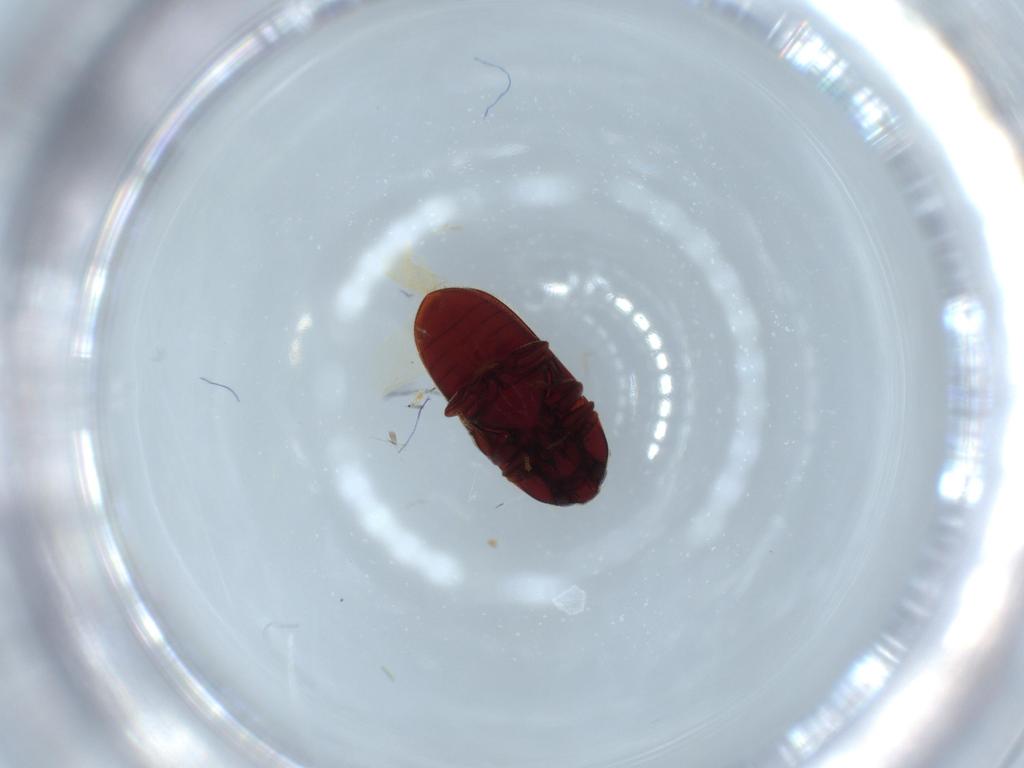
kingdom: Animalia
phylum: Arthropoda
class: Insecta
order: Coleoptera
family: Throscidae
